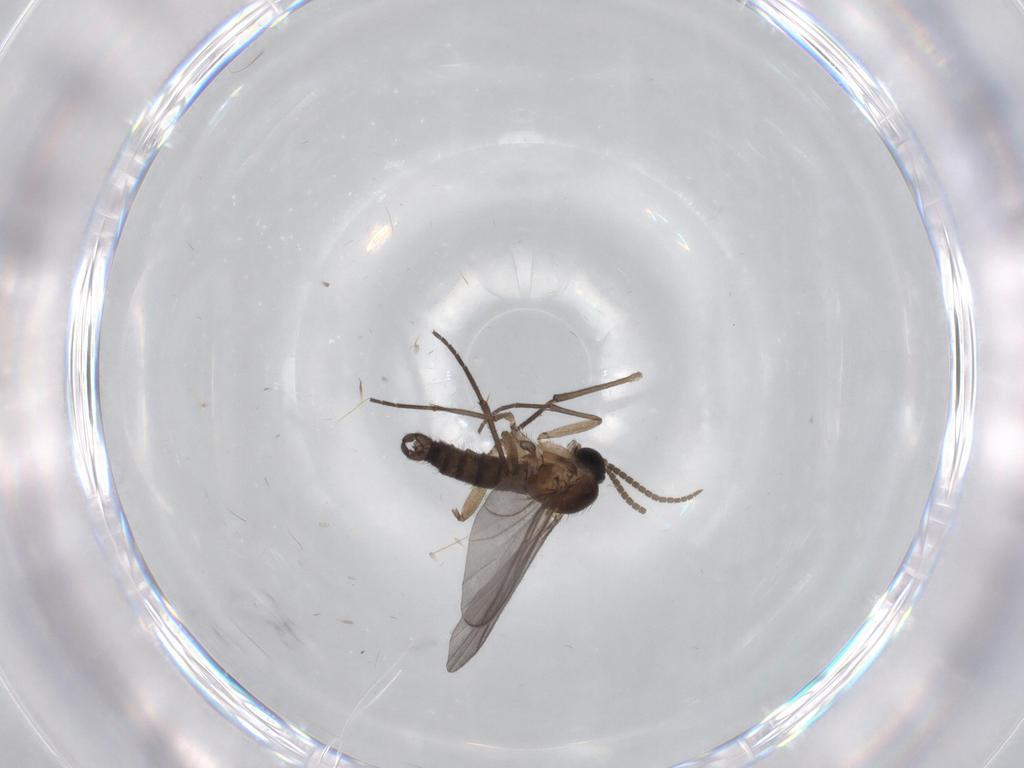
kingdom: Animalia
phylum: Arthropoda
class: Insecta
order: Diptera
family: Sciaridae
